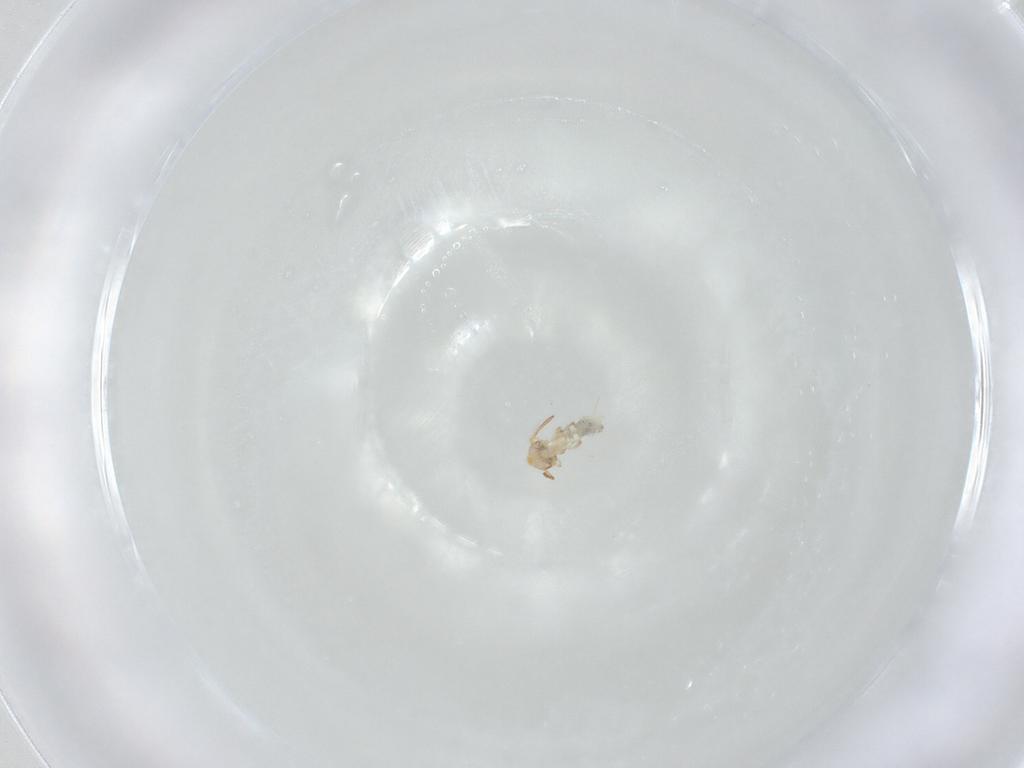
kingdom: Animalia
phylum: Arthropoda
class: Collembola
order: Symphypleona
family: Bourletiellidae
